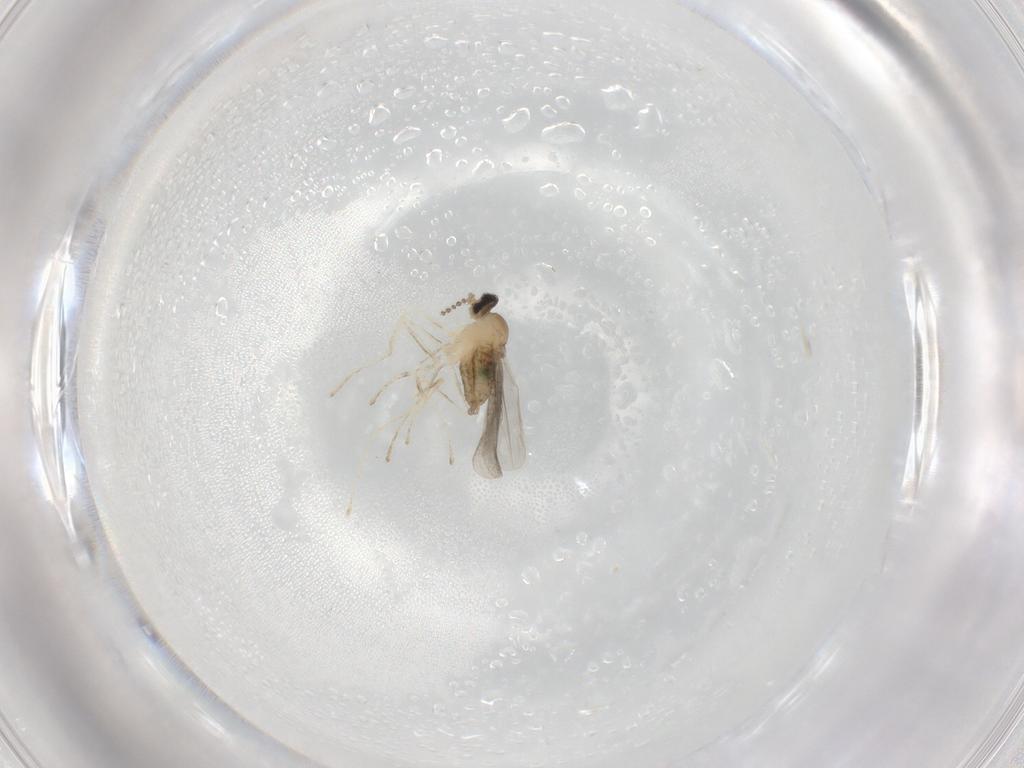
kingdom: Animalia
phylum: Arthropoda
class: Insecta
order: Diptera
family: Cecidomyiidae
